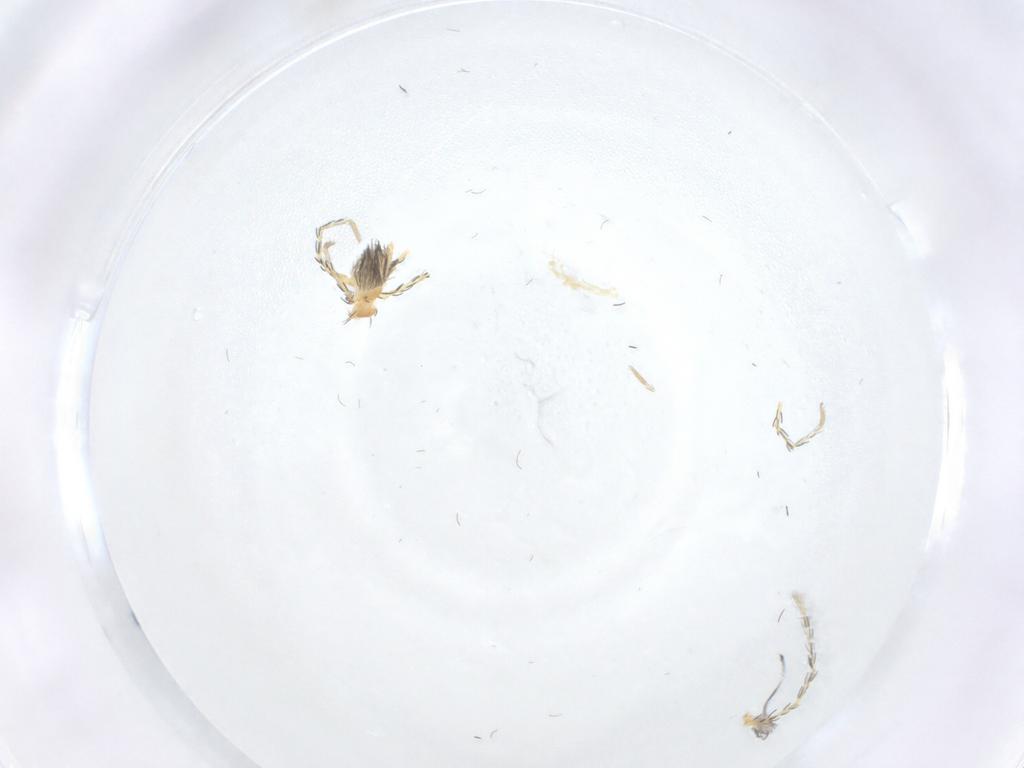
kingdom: Animalia
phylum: Arthropoda
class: Arachnida
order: Trombidiformes
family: Erythraeidae
